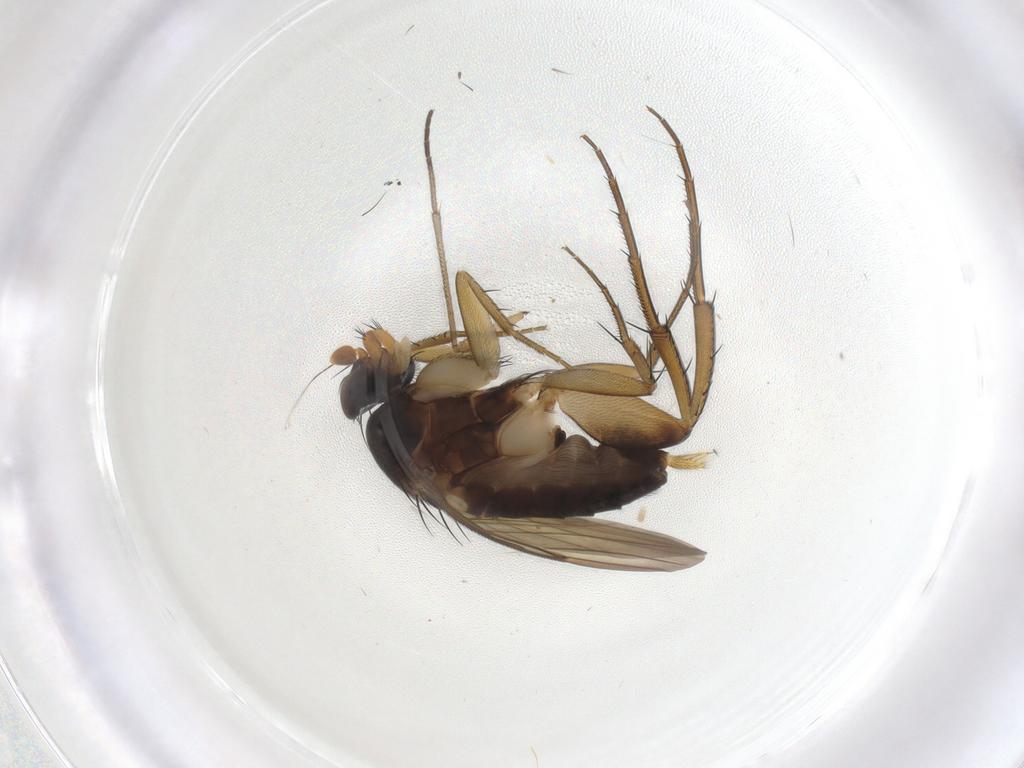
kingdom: Animalia
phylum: Arthropoda
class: Insecta
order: Diptera
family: Phoridae
